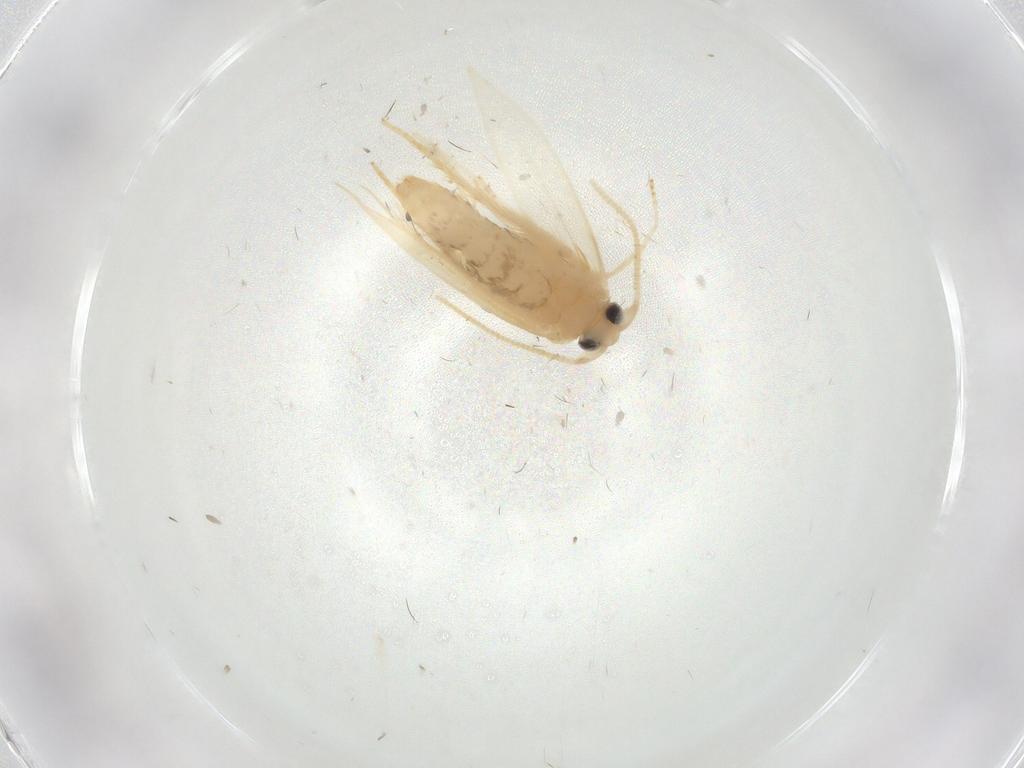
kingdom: Animalia
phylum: Arthropoda
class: Insecta
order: Lepidoptera
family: Opostegidae
